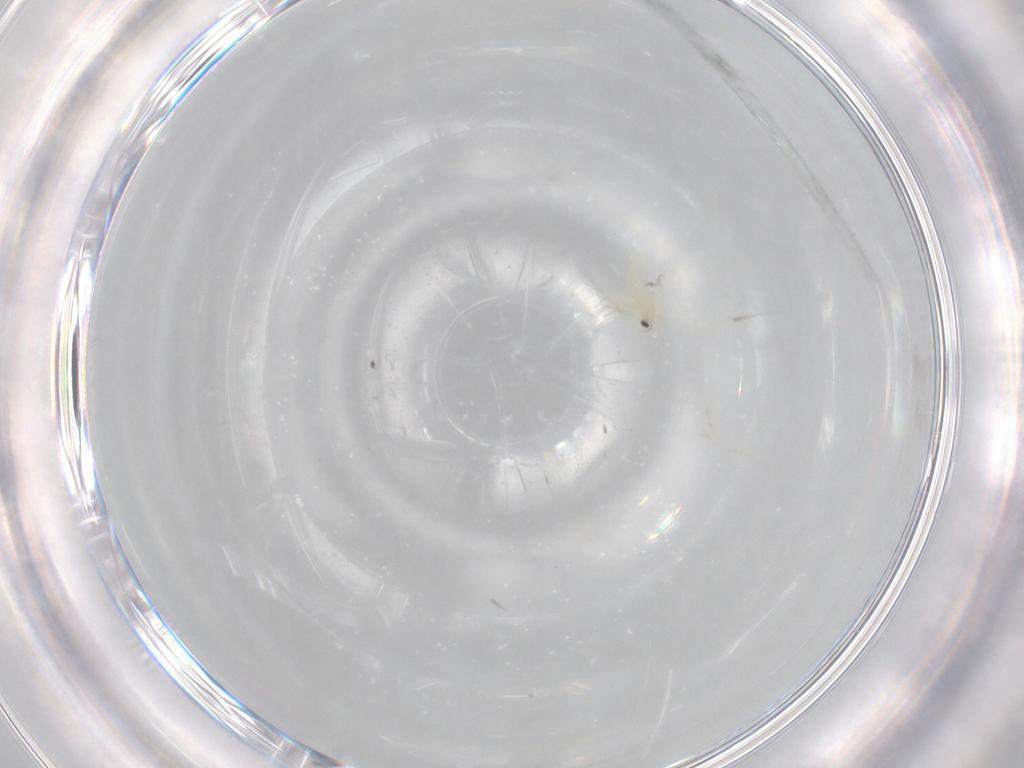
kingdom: Animalia
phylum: Arthropoda
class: Insecta
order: Hemiptera
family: Aleyrodidae
